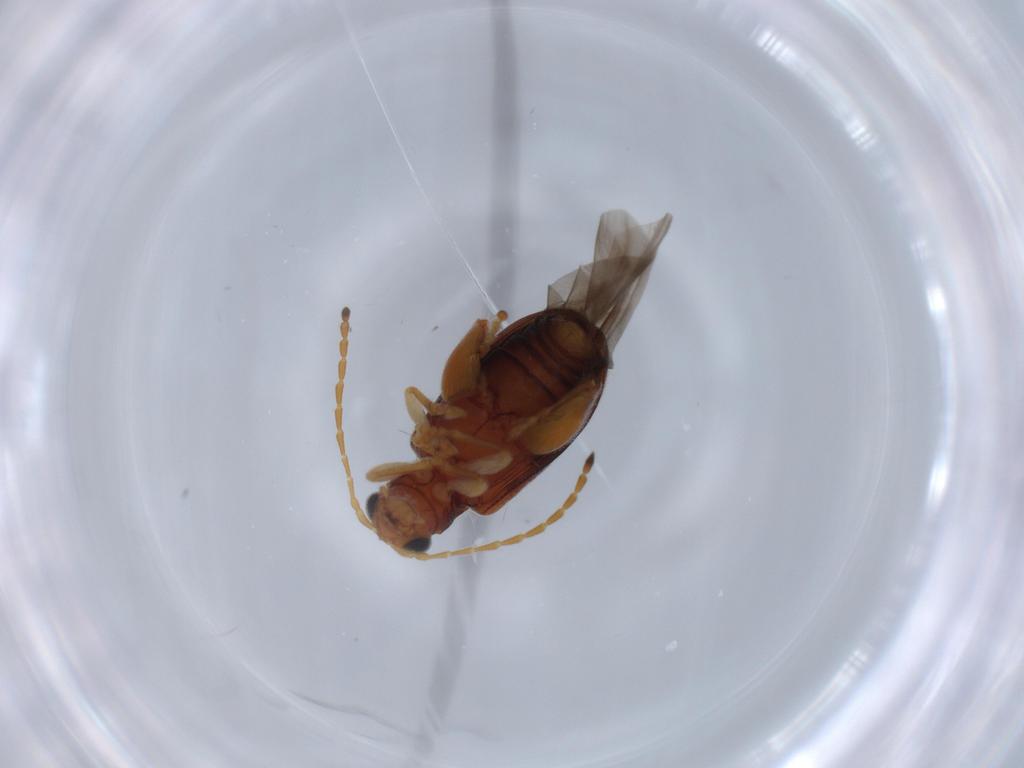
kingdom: Animalia
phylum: Arthropoda
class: Insecta
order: Coleoptera
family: Chrysomelidae
